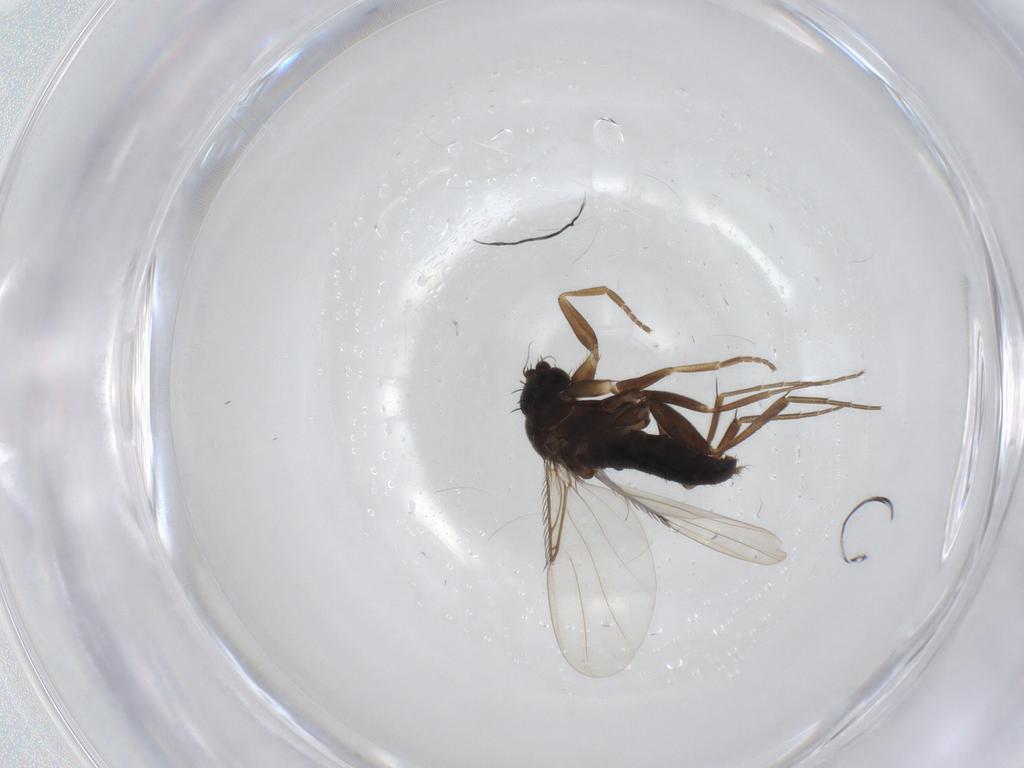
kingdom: Animalia
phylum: Arthropoda
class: Insecta
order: Diptera
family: Phoridae
